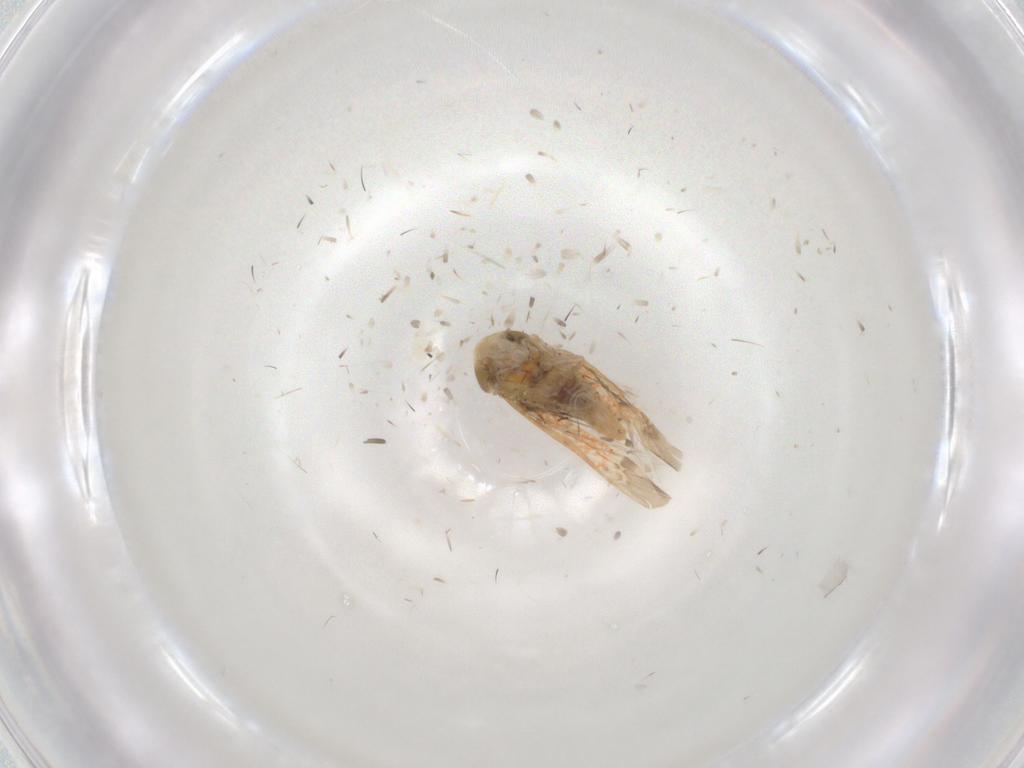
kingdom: Animalia
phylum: Arthropoda
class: Insecta
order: Hemiptera
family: Cicadellidae
